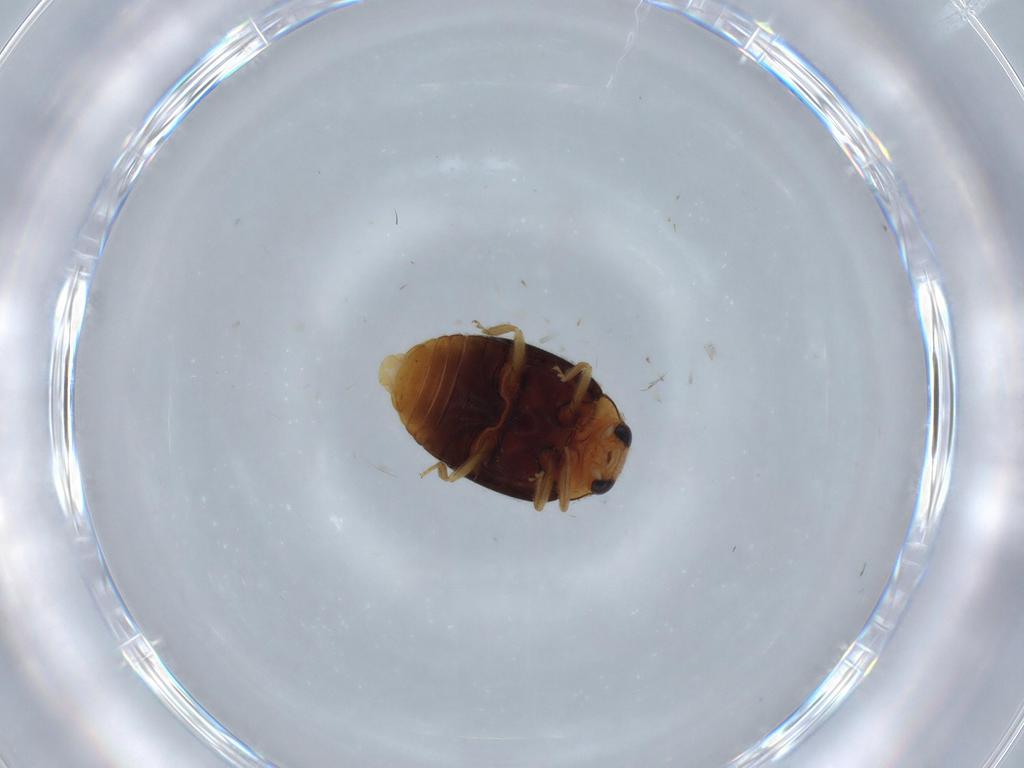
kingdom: Animalia
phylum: Arthropoda
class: Insecta
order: Coleoptera
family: Coccinellidae
